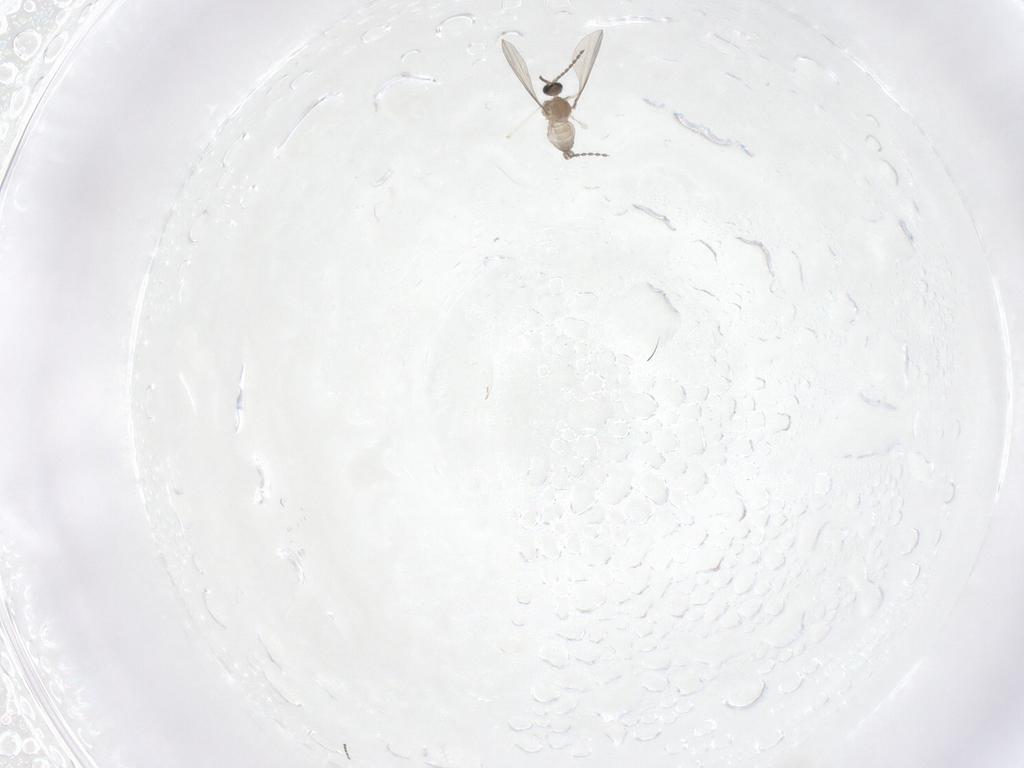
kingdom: Animalia
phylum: Arthropoda
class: Insecta
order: Diptera
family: Cecidomyiidae
